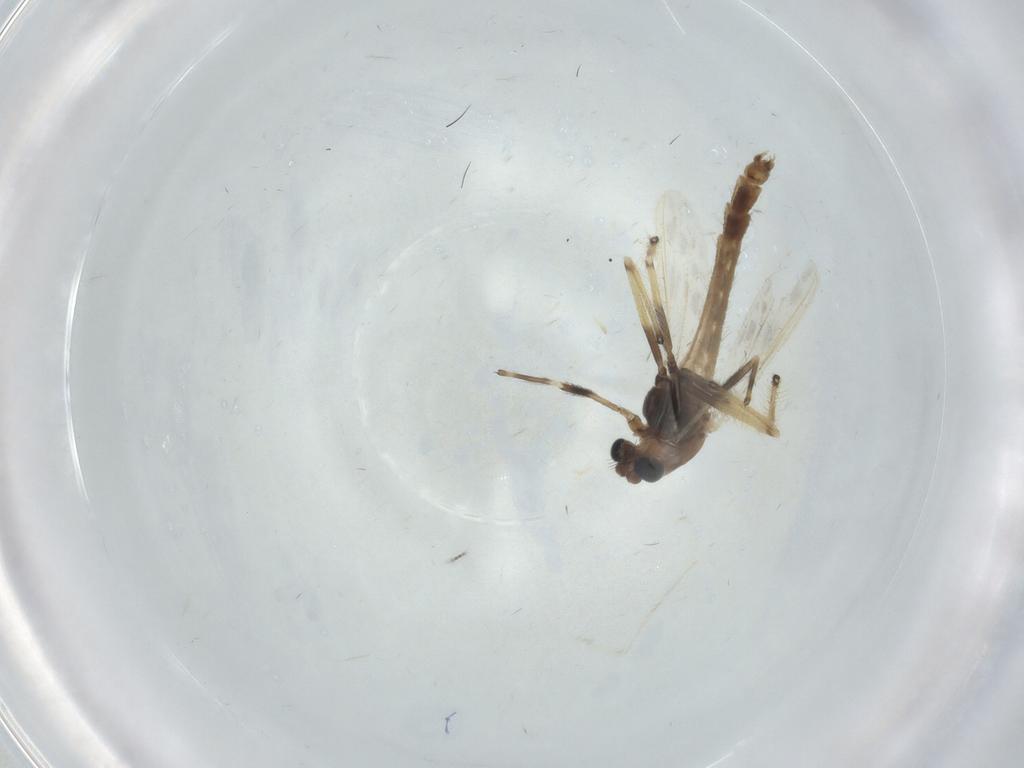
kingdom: Animalia
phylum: Arthropoda
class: Insecta
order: Diptera
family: Chironomidae
